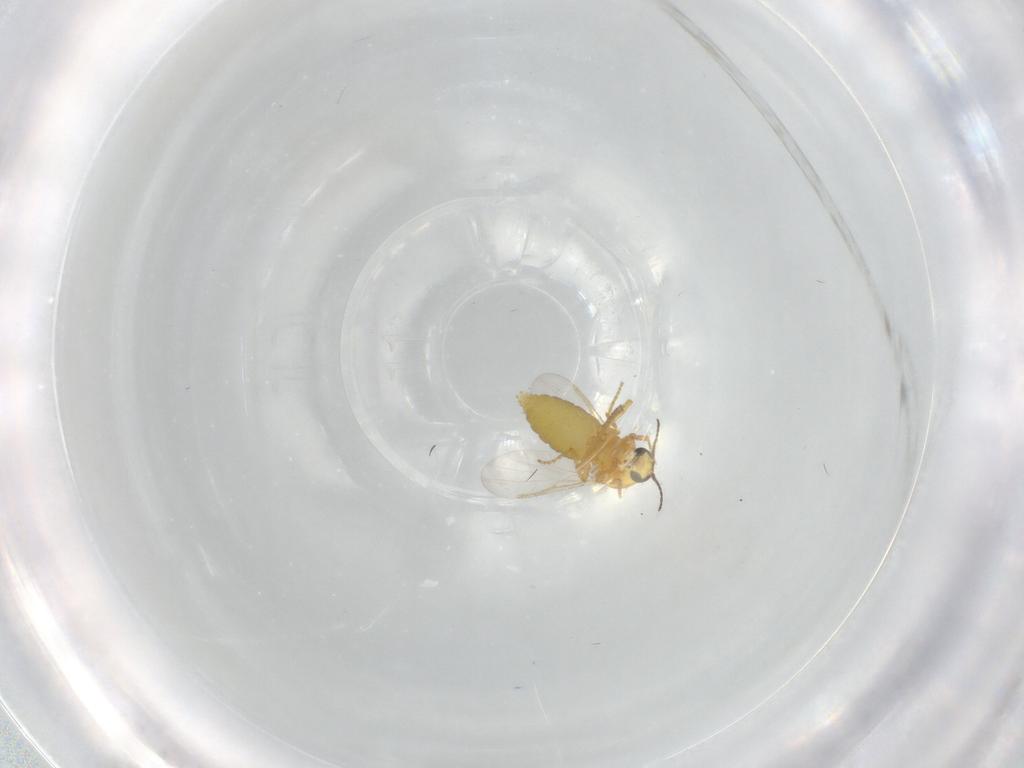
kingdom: Animalia
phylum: Arthropoda
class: Insecta
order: Diptera
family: Ceratopogonidae
